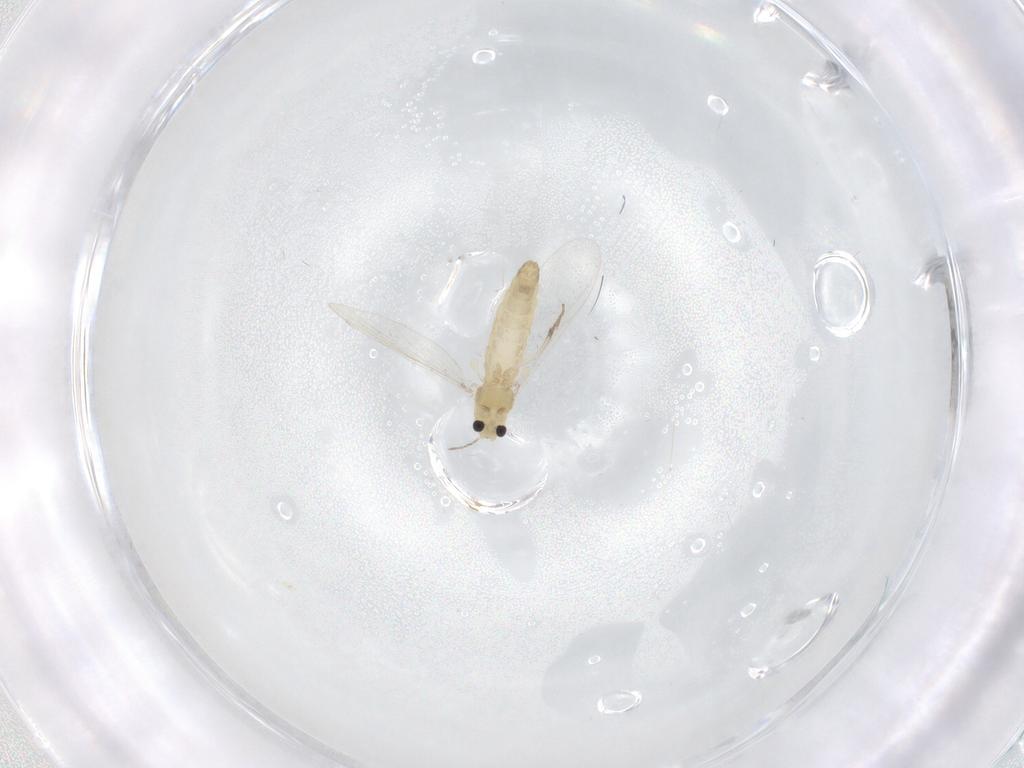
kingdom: Animalia
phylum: Arthropoda
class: Insecta
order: Diptera
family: Chironomidae
